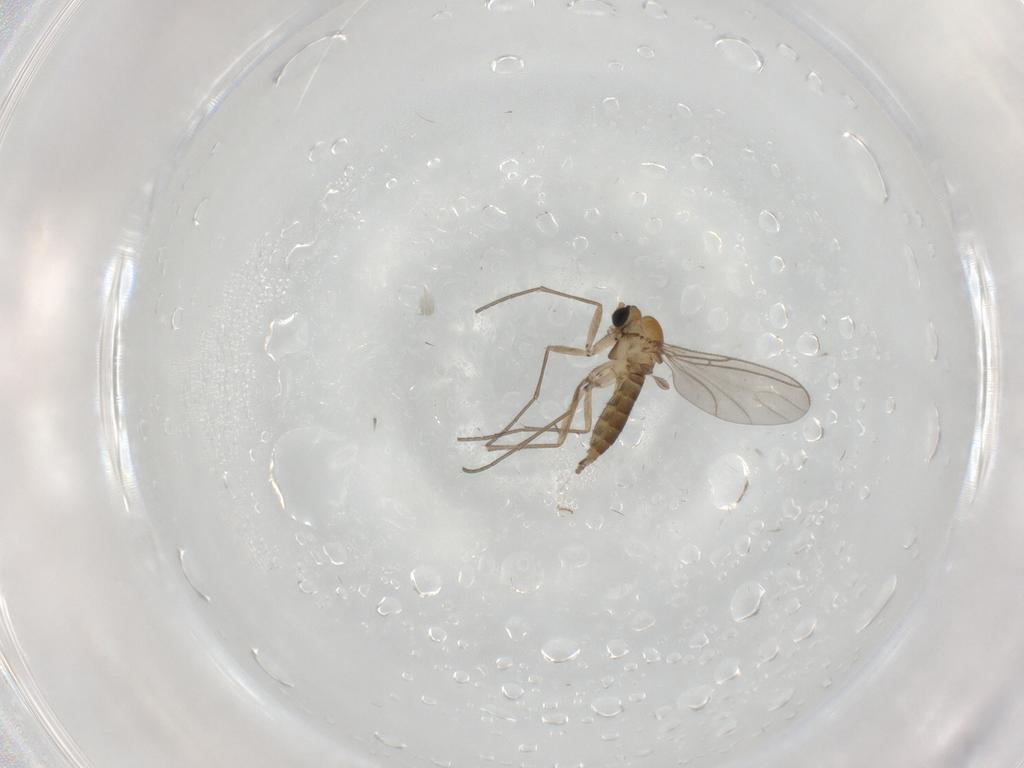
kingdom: Animalia
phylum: Arthropoda
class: Insecta
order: Diptera
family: Sciaridae
